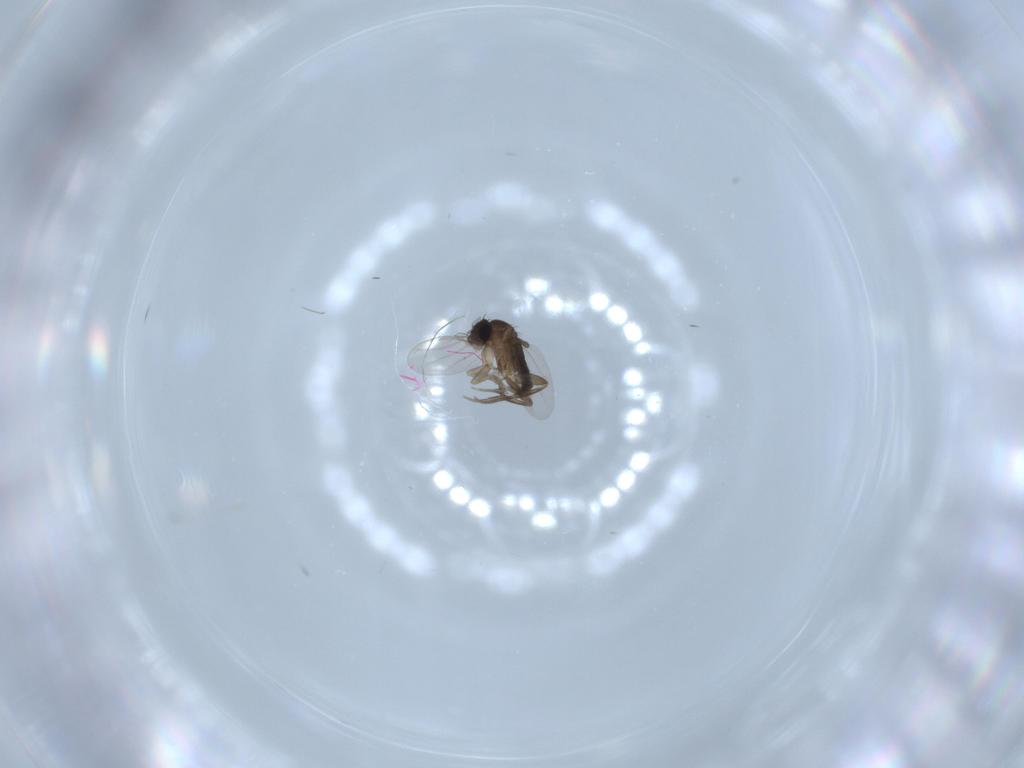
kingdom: Animalia
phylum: Arthropoda
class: Insecta
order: Diptera
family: Phoridae
